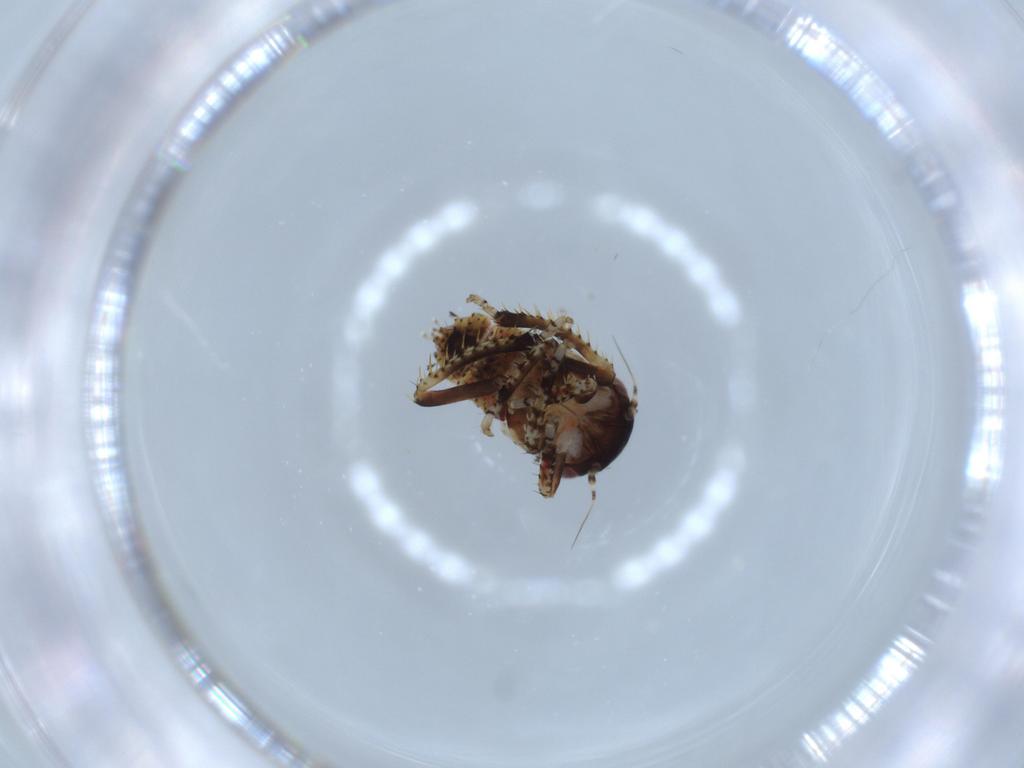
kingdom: Animalia
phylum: Arthropoda
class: Insecta
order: Hemiptera
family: Cicadellidae
